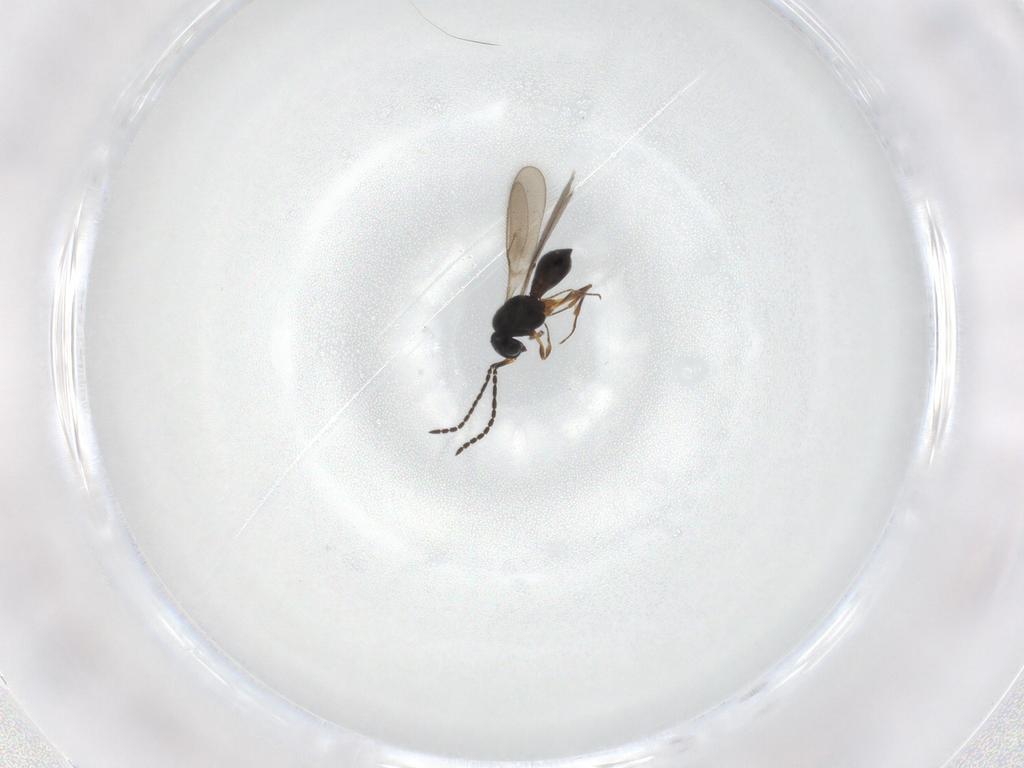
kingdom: Animalia
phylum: Arthropoda
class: Insecta
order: Hymenoptera
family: Scelionidae
